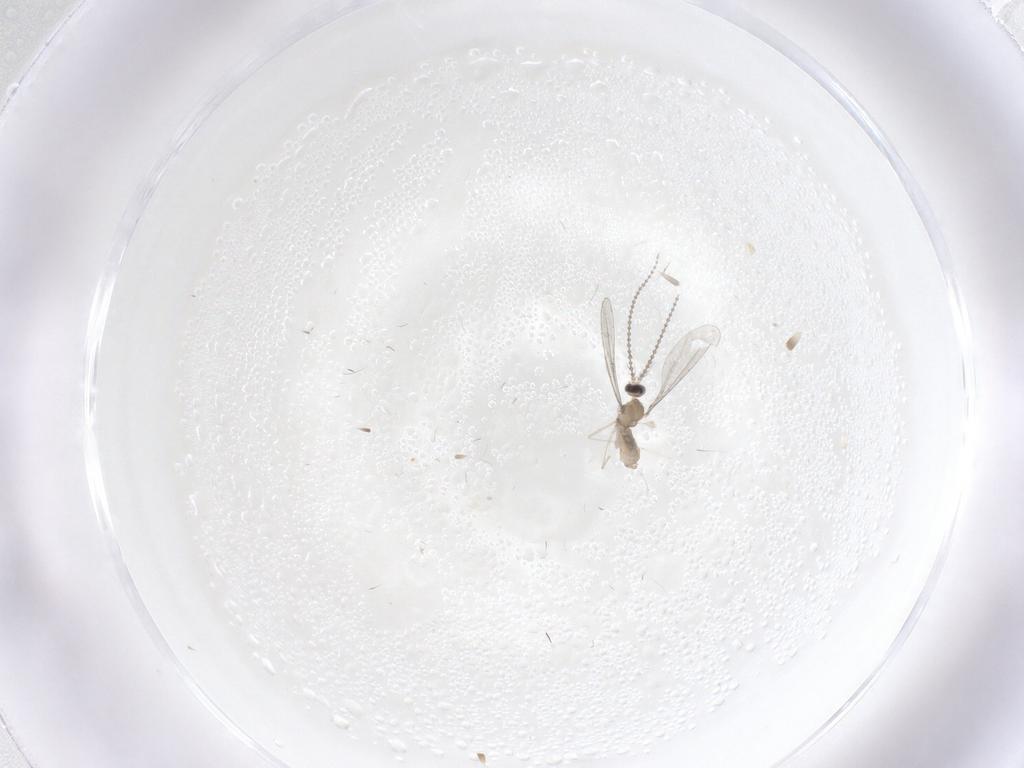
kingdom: Animalia
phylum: Arthropoda
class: Insecta
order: Diptera
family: Cecidomyiidae
